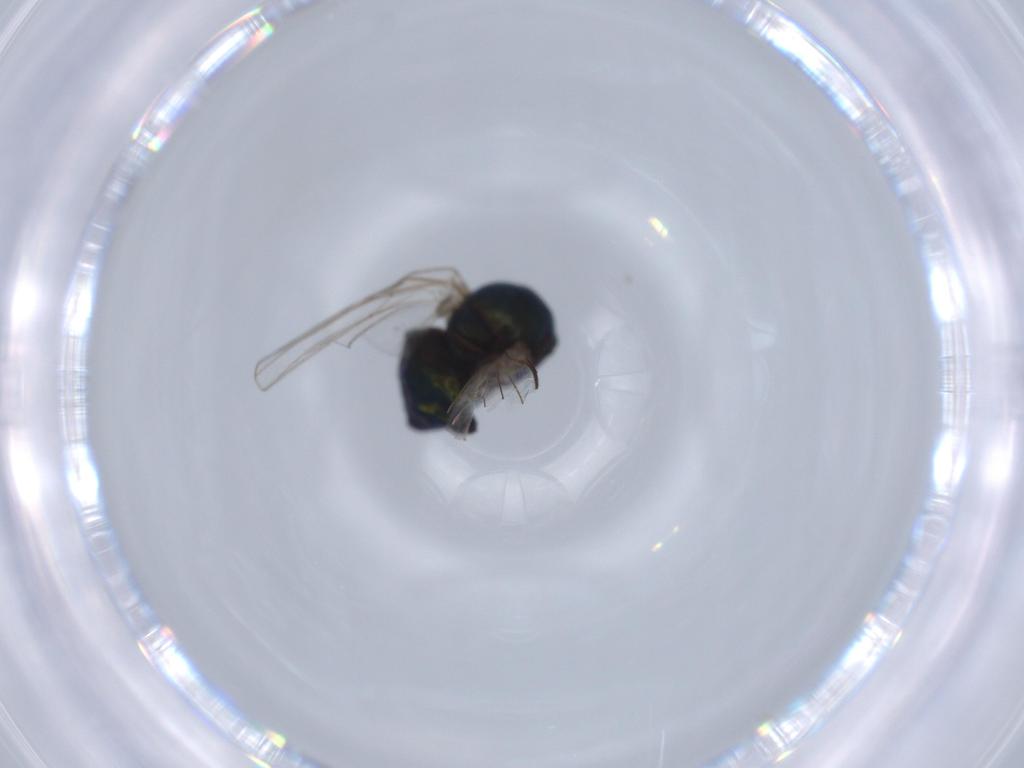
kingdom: Animalia
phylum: Arthropoda
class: Insecta
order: Diptera
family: Dolichopodidae
